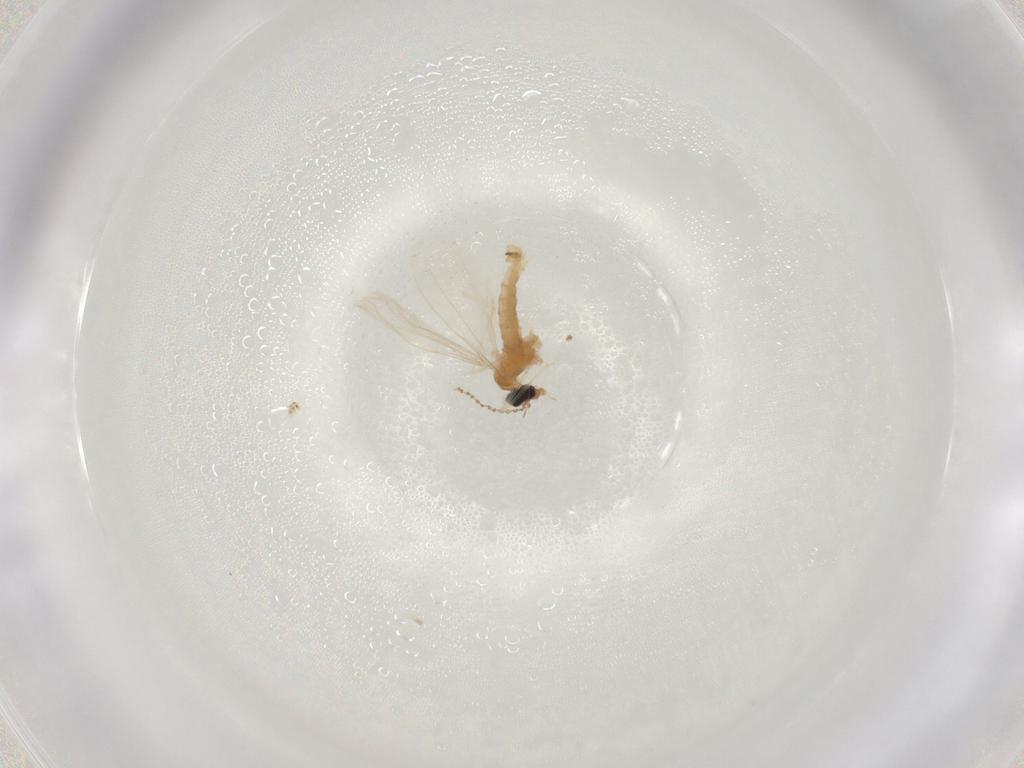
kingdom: Animalia
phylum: Arthropoda
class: Insecta
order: Diptera
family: Cecidomyiidae
